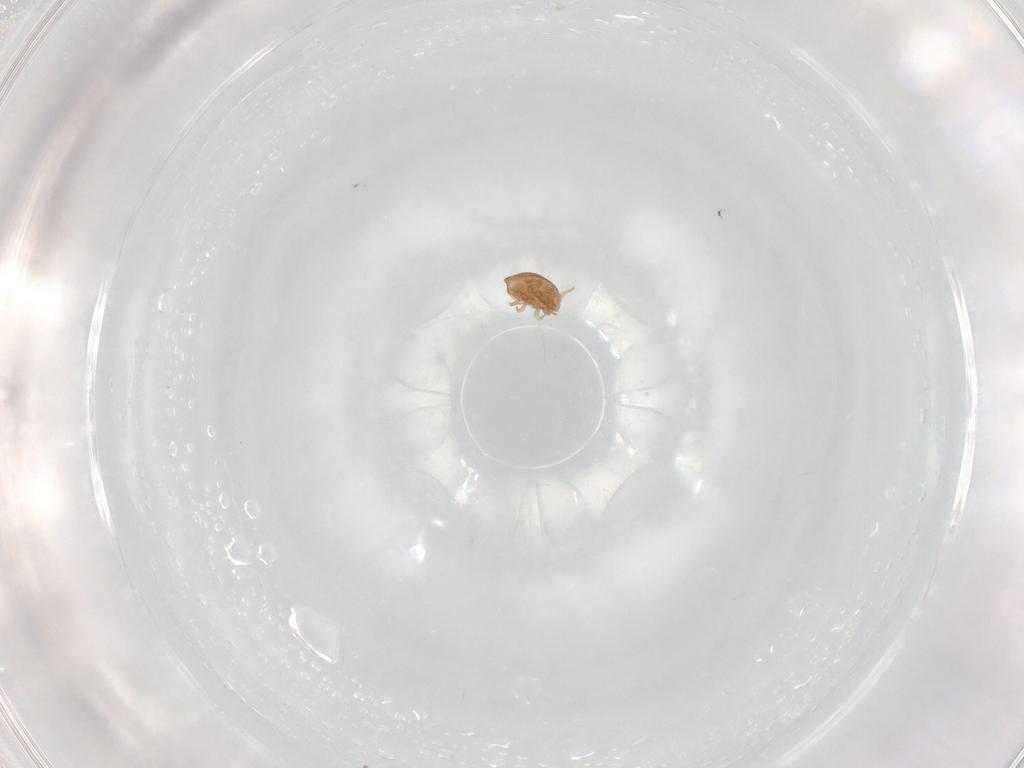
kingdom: Animalia
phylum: Arthropoda
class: Arachnida
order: Mesostigmata
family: Polyaspididae
